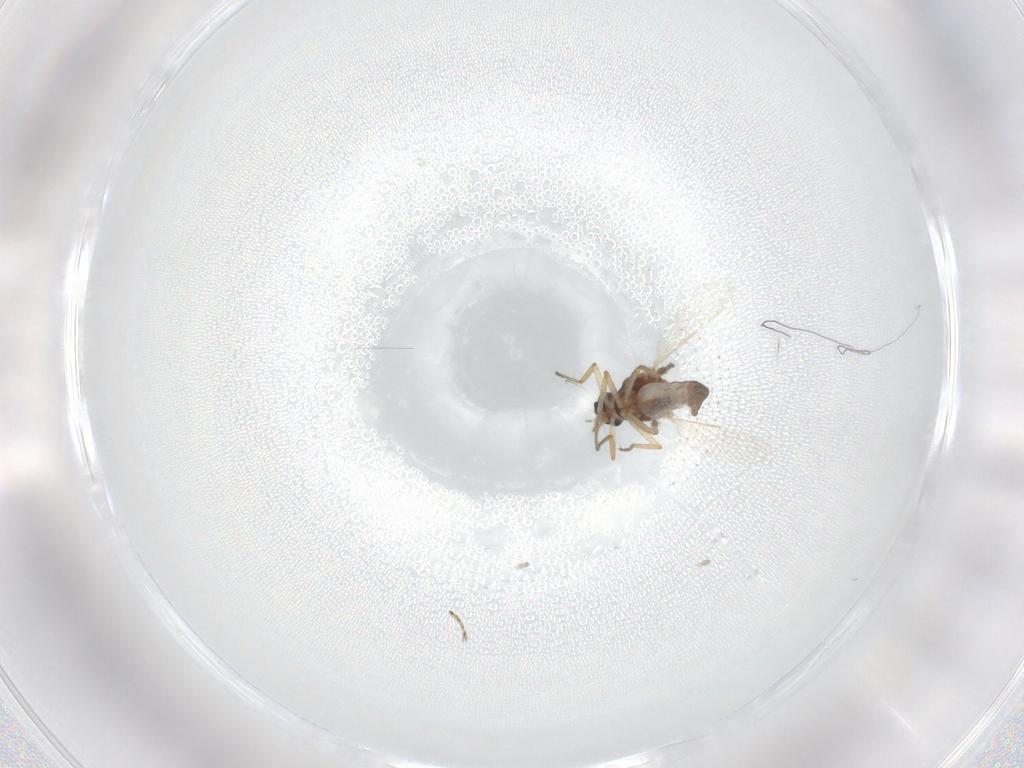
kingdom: Animalia
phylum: Arthropoda
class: Insecta
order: Diptera
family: Ceratopogonidae
